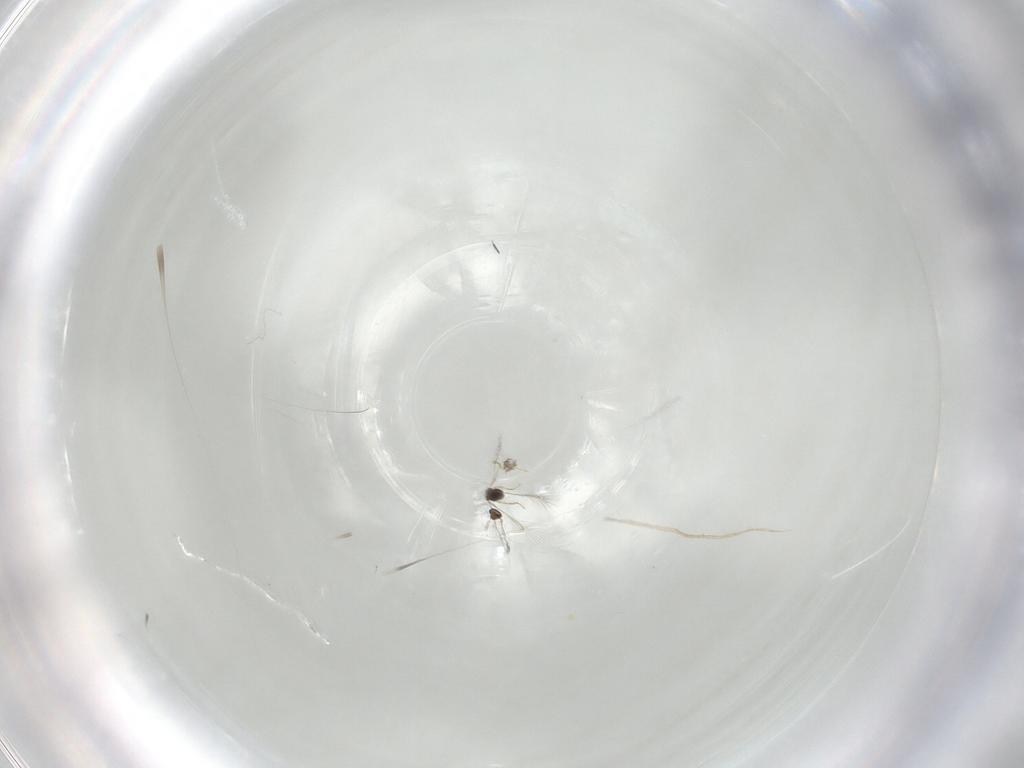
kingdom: Animalia
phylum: Arthropoda
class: Insecta
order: Hymenoptera
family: Mymaridae
